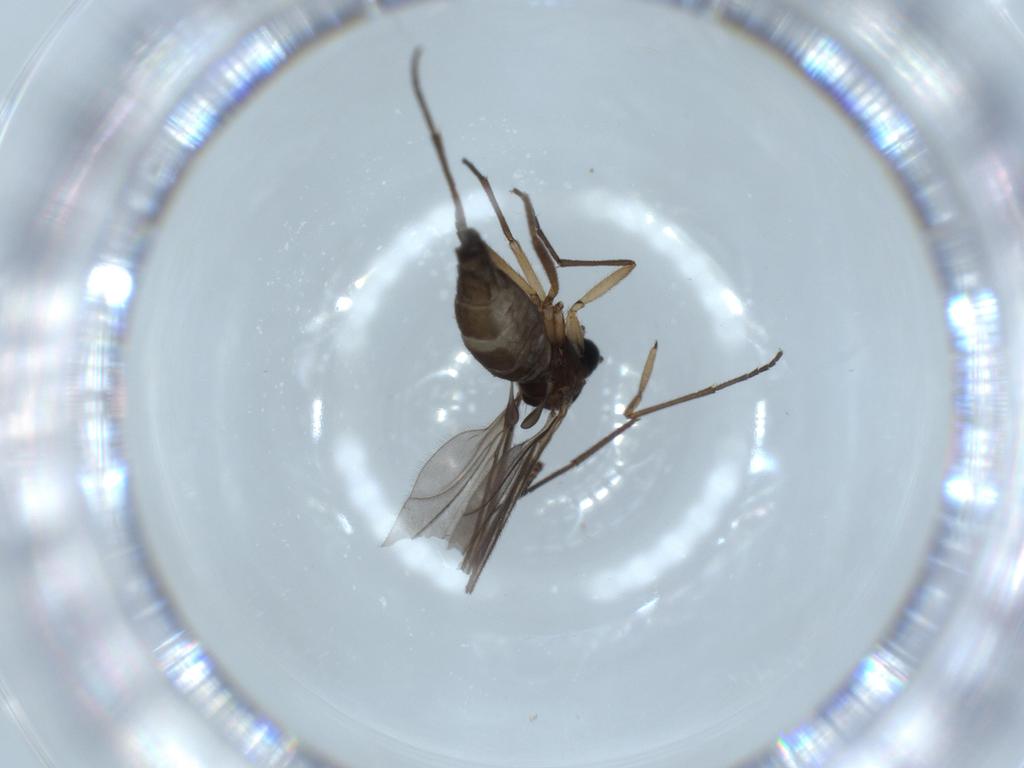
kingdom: Animalia
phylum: Arthropoda
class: Insecta
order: Diptera
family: Sciaridae
